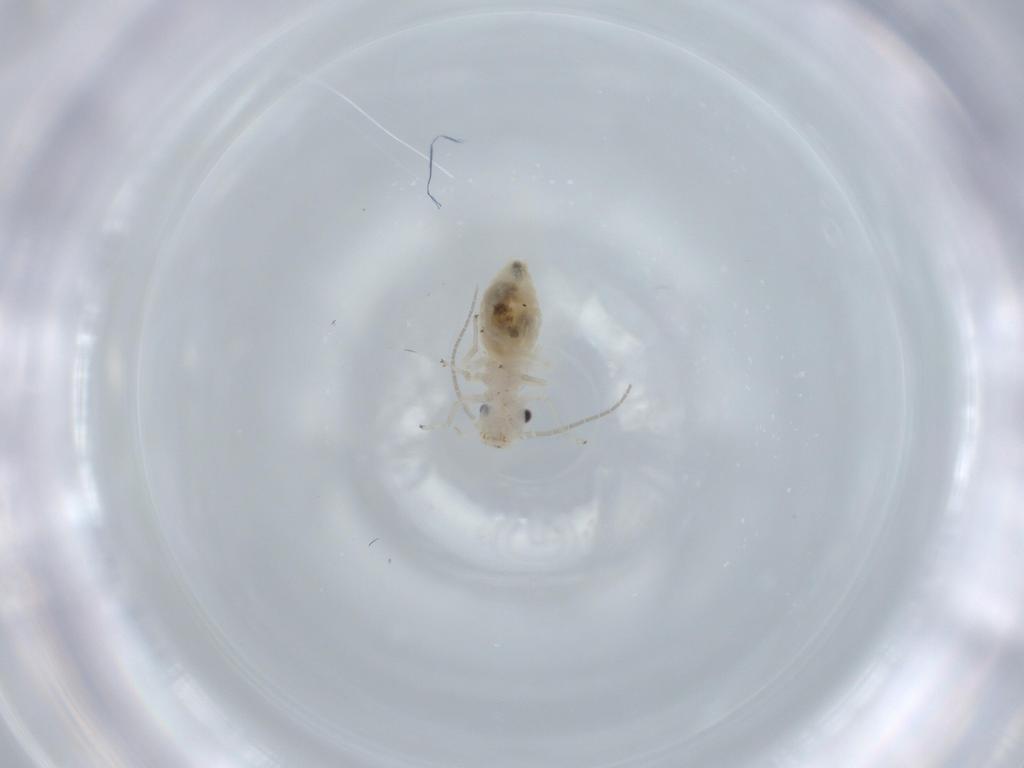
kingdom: Animalia
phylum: Arthropoda
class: Insecta
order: Psocodea
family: Caeciliusidae
